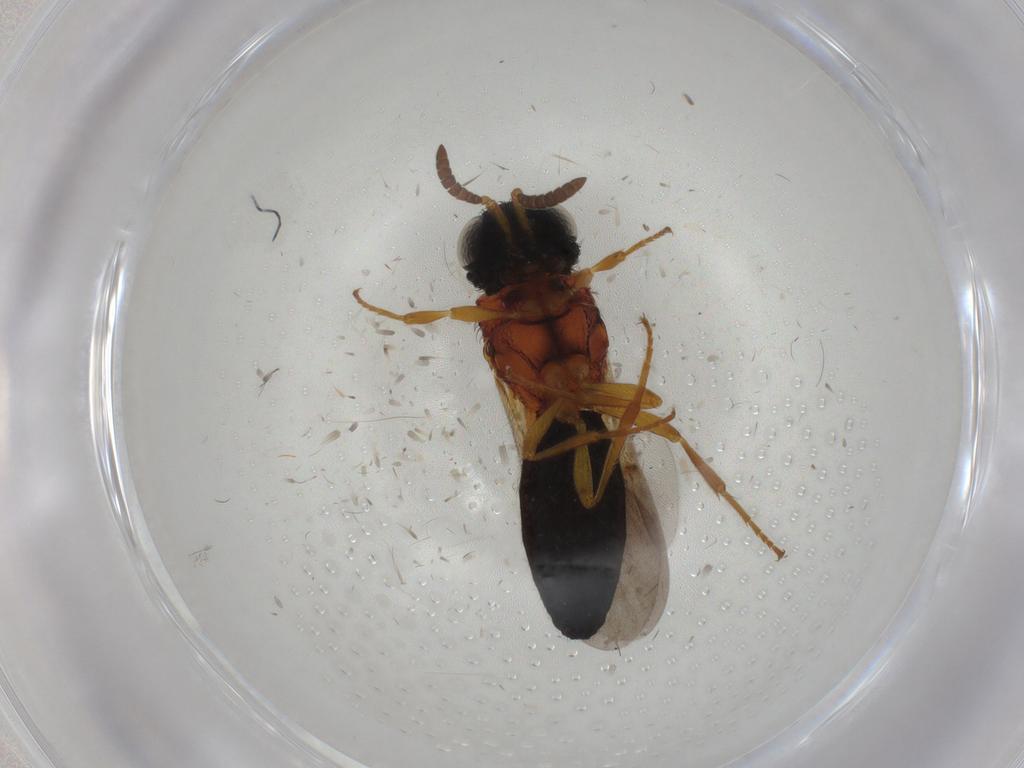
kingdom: Animalia
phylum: Arthropoda
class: Insecta
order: Hymenoptera
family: Scelionidae
